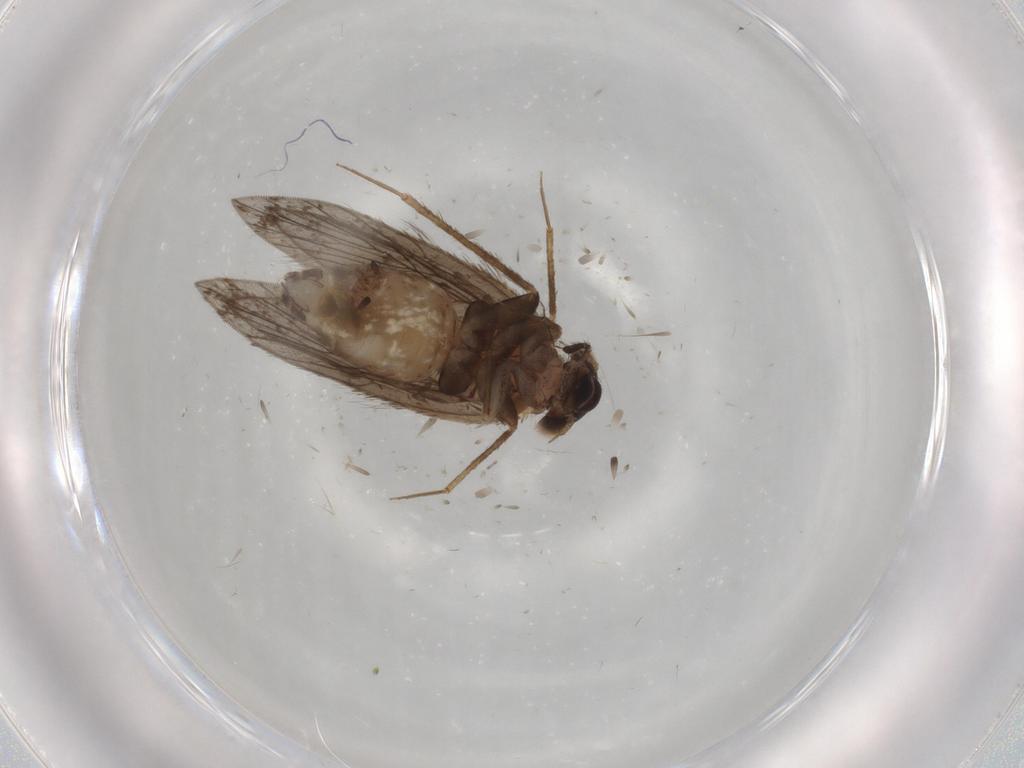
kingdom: Animalia
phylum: Arthropoda
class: Insecta
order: Psocodea
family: Lepidopsocidae
